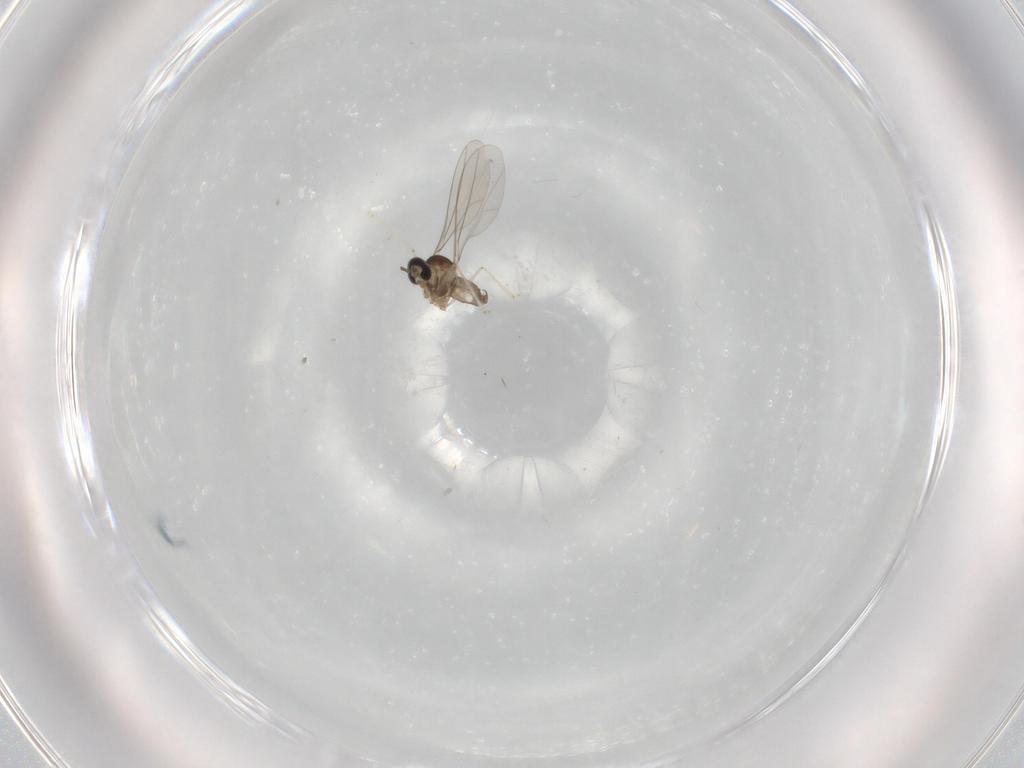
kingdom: Animalia
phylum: Arthropoda
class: Insecta
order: Diptera
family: Cecidomyiidae
